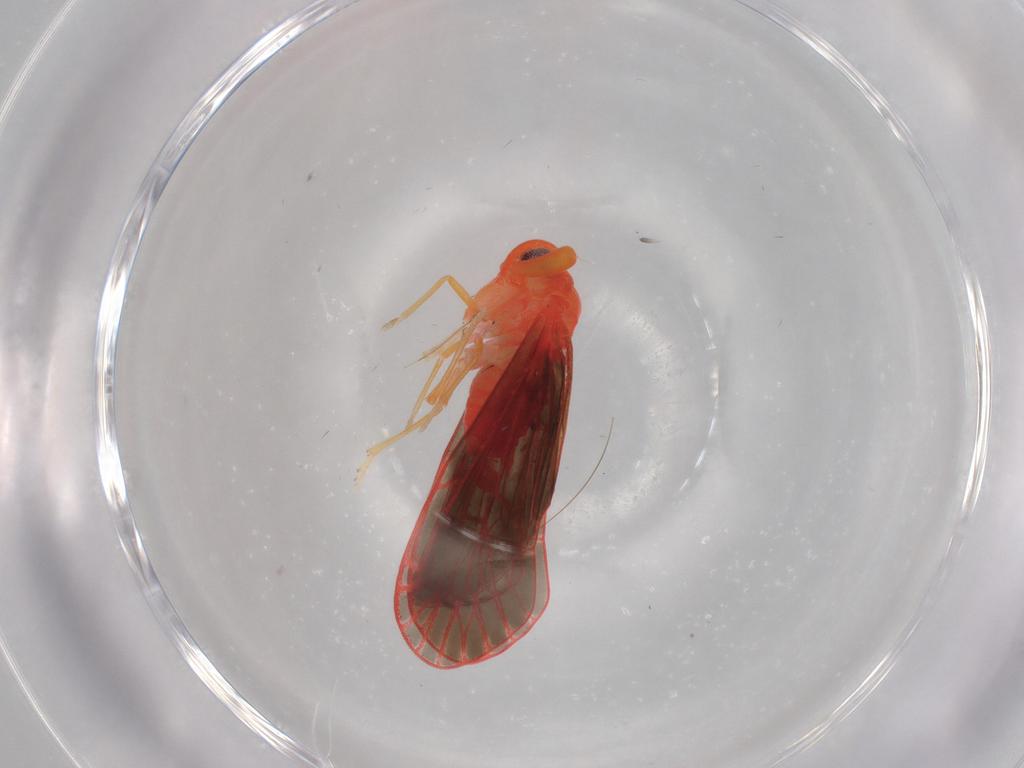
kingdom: Animalia
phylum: Arthropoda
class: Insecta
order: Hemiptera
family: Derbidae
